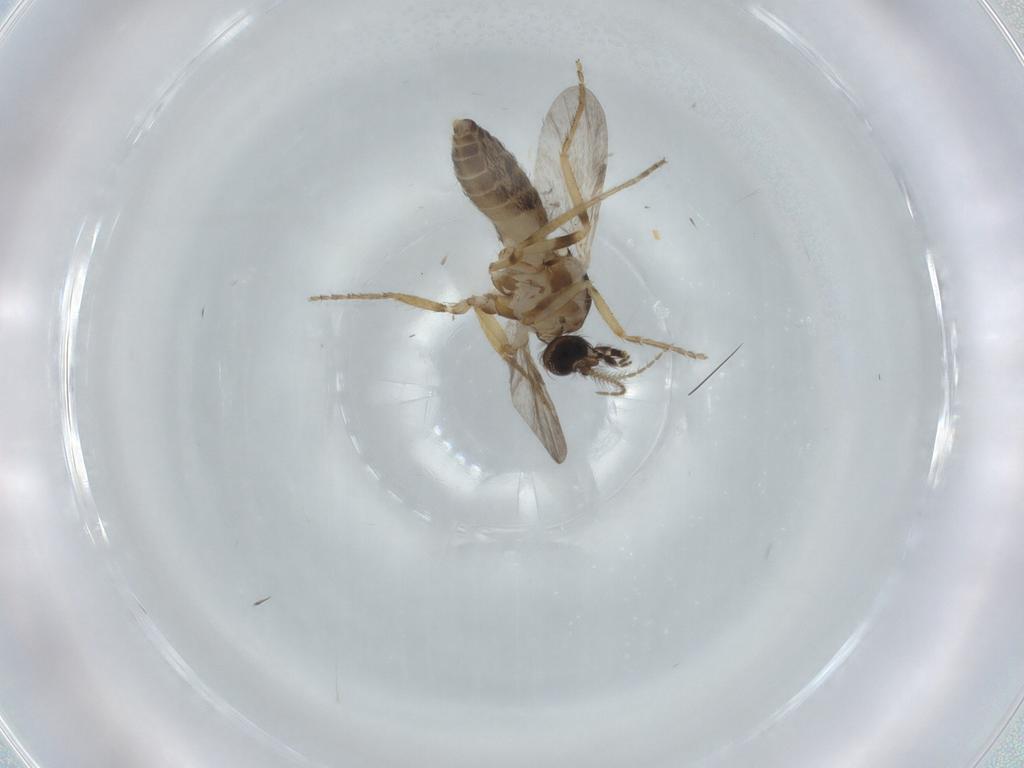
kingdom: Animalia
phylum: Arthropoda
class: Insecta
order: Diptera
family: Ceratopogonidae
